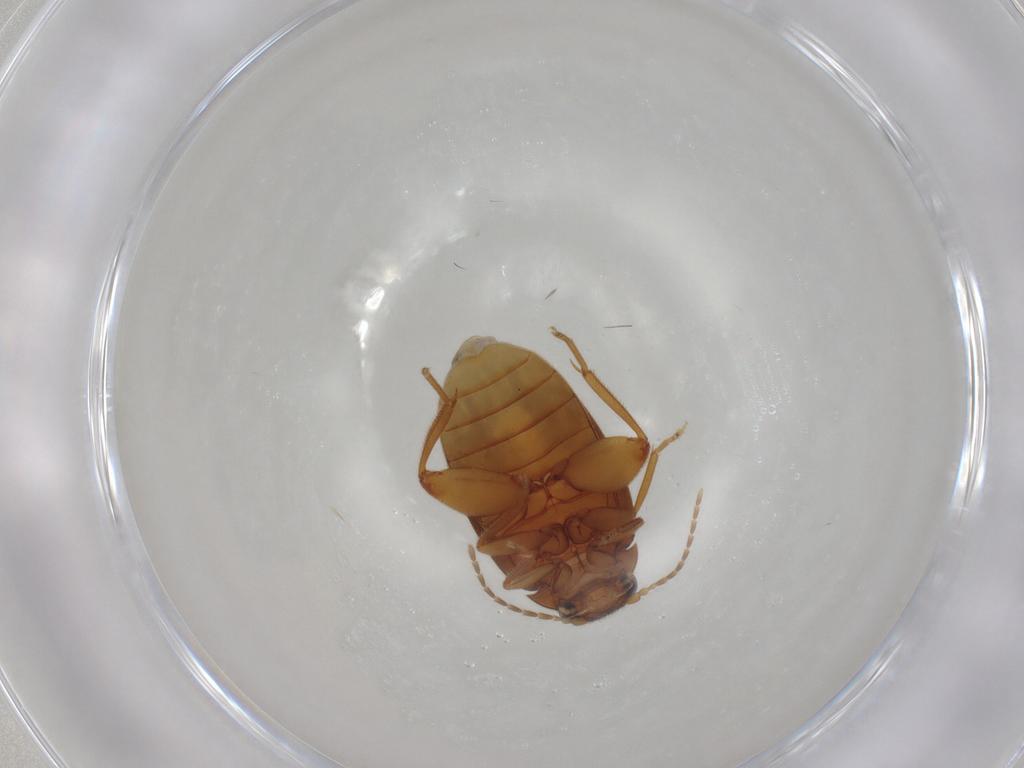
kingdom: Animalia
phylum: Arthropoda
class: Insecta
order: Coleoptera
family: Scirtidae
